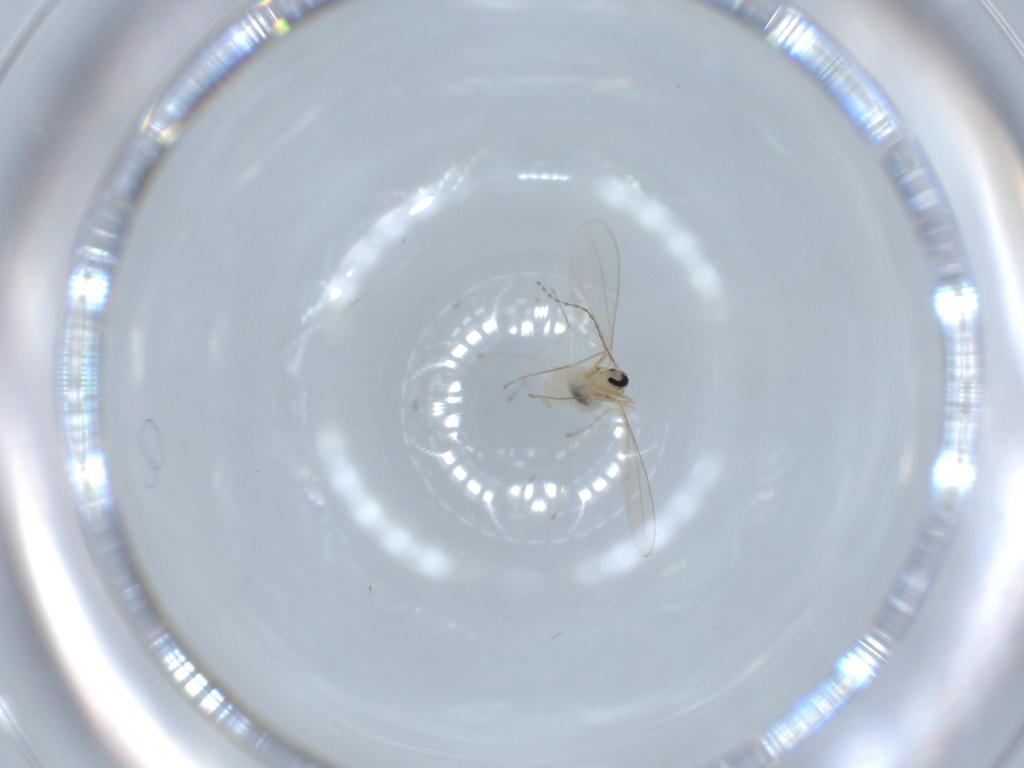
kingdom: Animalia
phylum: Arthropoda
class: Insecta
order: Diptera
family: Cecidomyiidae
